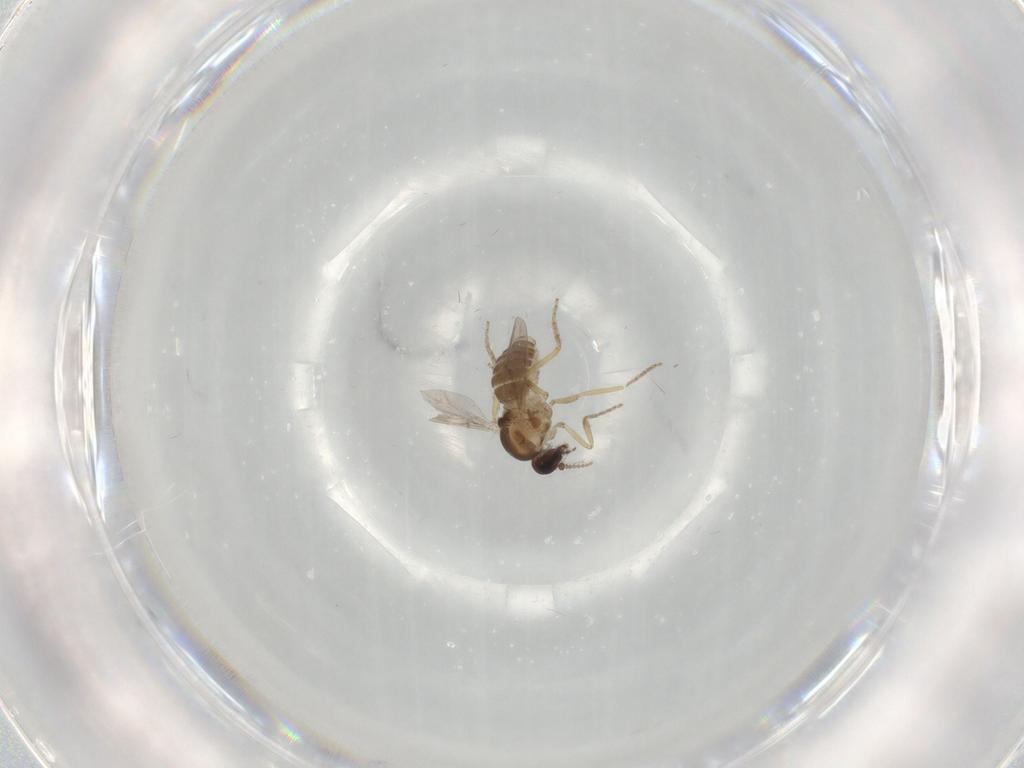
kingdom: Animalia
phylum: Arthropoda
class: Insecta
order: Diptera
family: Ceratopogonidae
